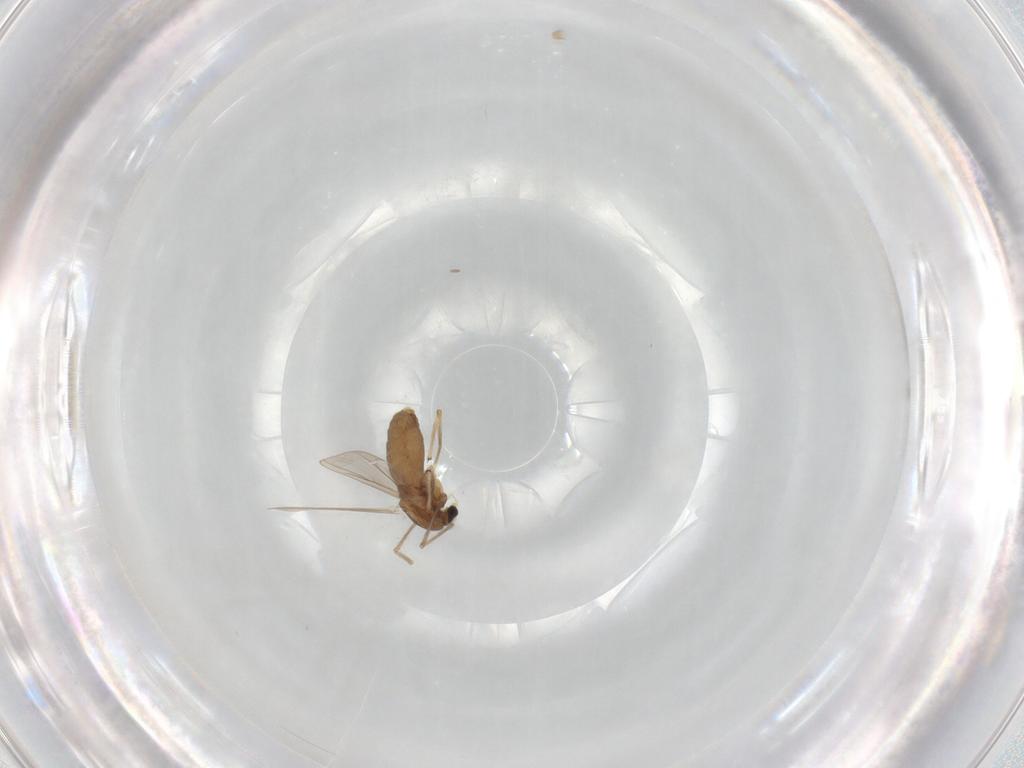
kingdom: Animalia
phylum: Arthropoda
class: Insecta
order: Diptera
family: Chironomidae
